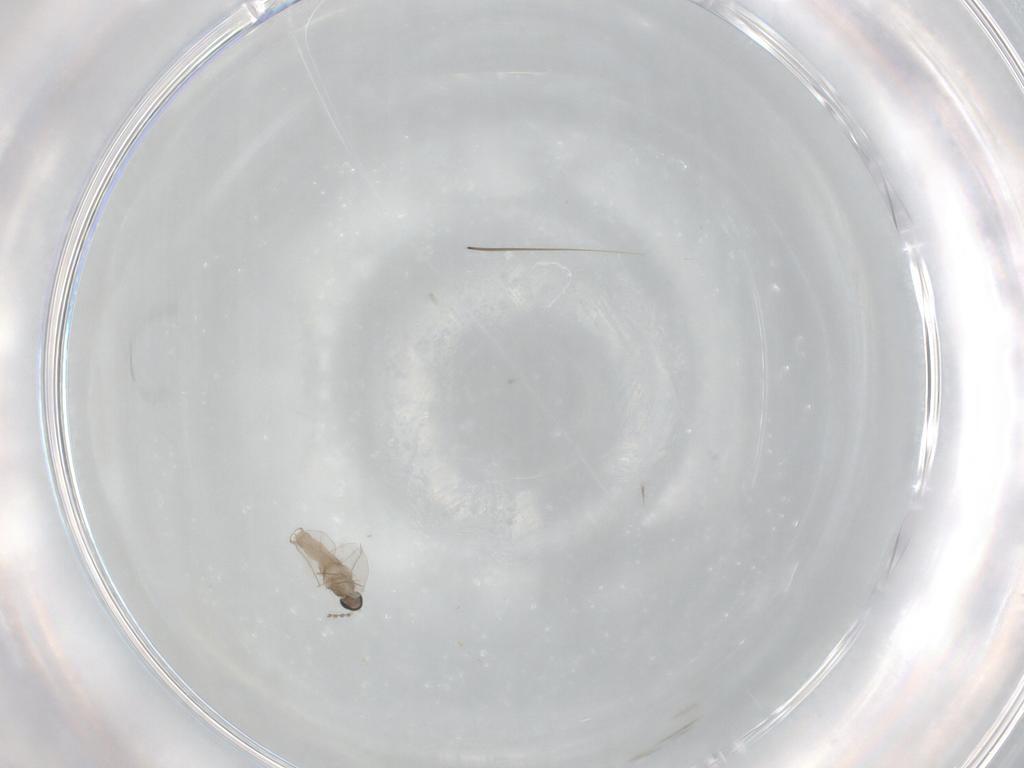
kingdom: Animalia
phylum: Arthropoda
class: Insecta
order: Diptera
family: Cecidomyiidae
